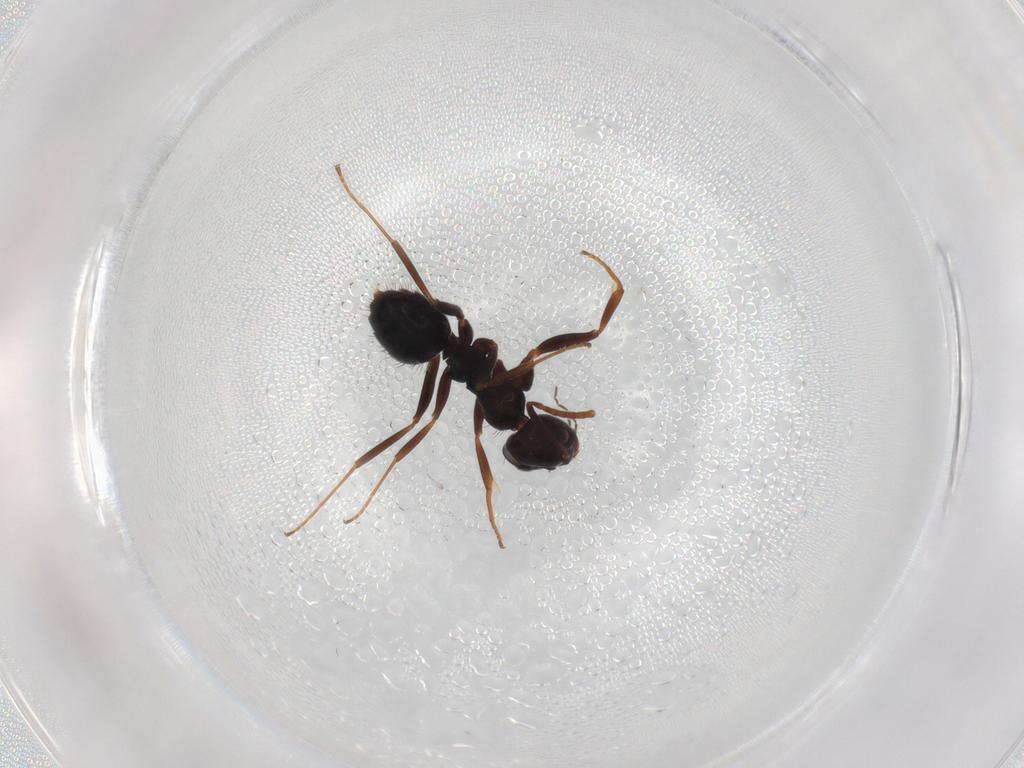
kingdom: Animalia
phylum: Arthropoda
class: Insecta
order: Hymenoptera
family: Formicidae
